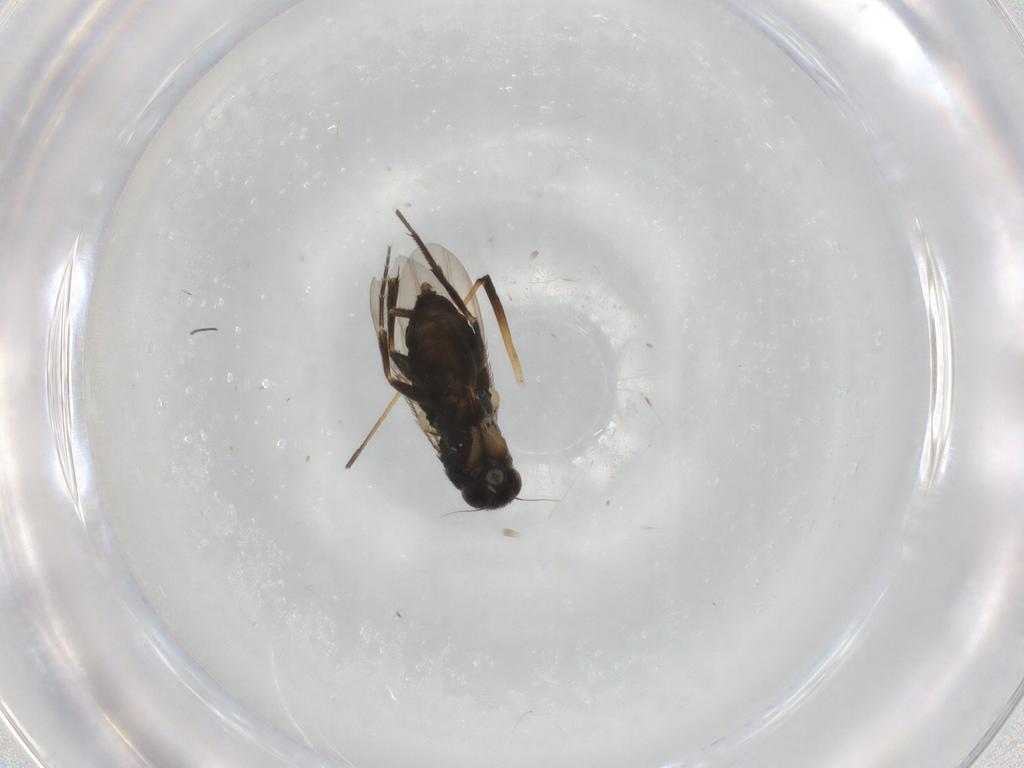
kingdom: Animalia
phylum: Arthropoda
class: Insecta
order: Diptera
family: Phoridae
